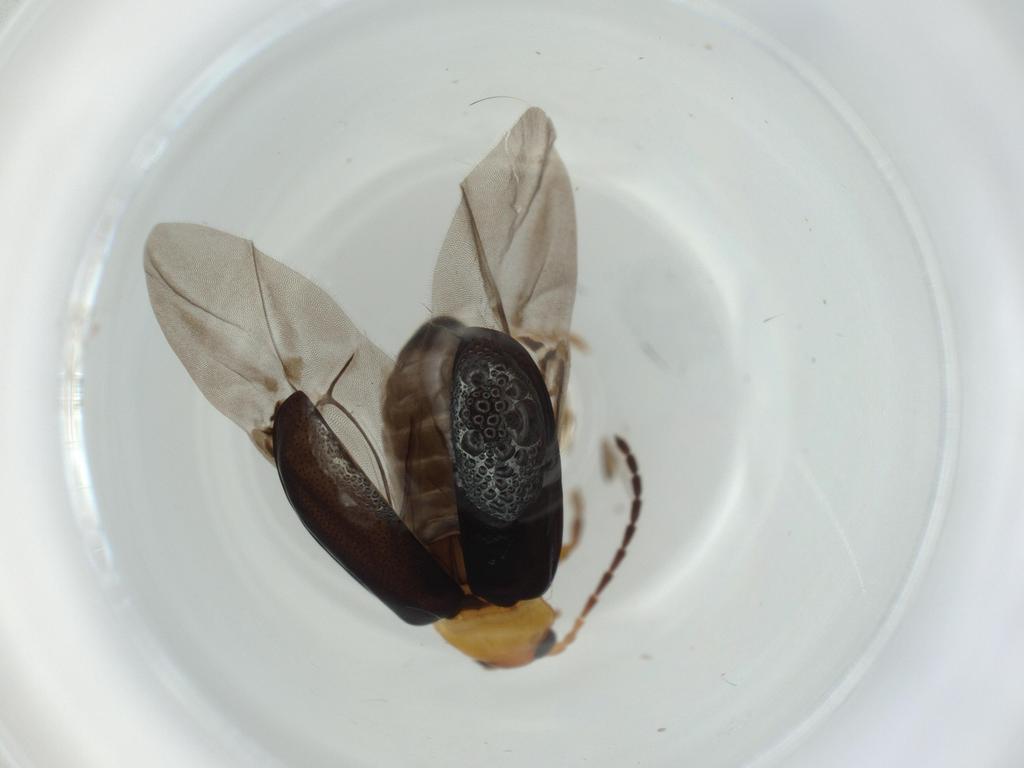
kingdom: Animalia
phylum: Arthropoda
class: Insecta
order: Coleoptera
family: Chrysomelidae
